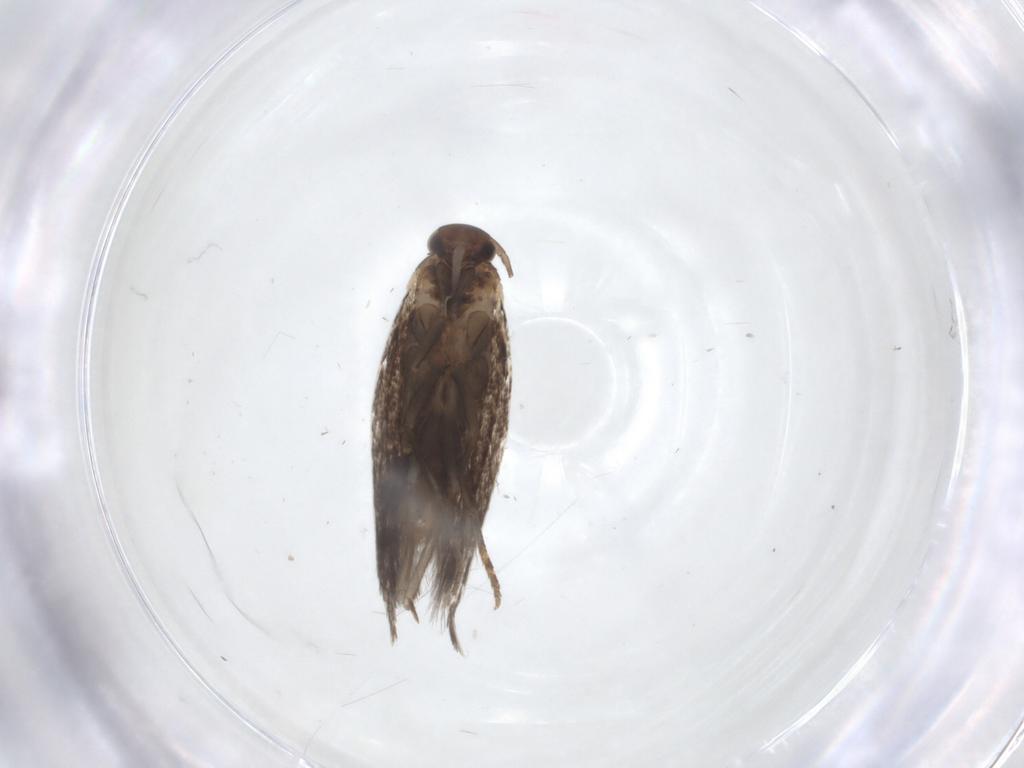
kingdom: Animalia
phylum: Arthropoda
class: Insecta
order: Lepidoptera
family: Elachistidae
